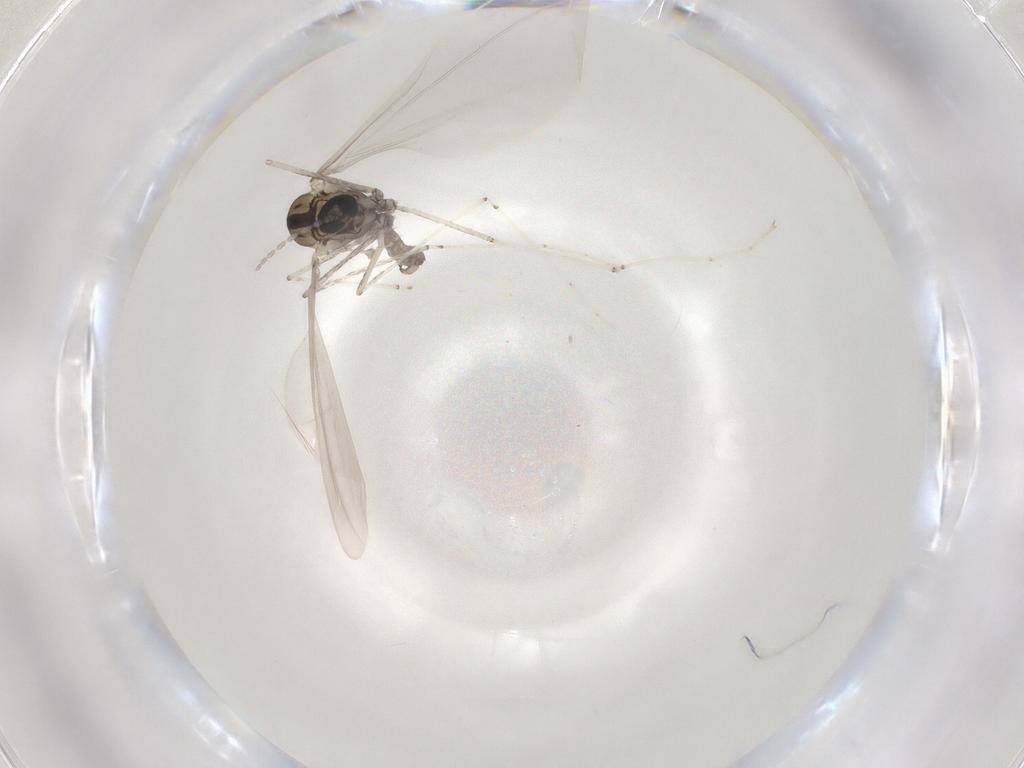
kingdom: Animalia
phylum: Arthropoda
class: Insecta
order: Diptera
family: Cecidomyiidae
